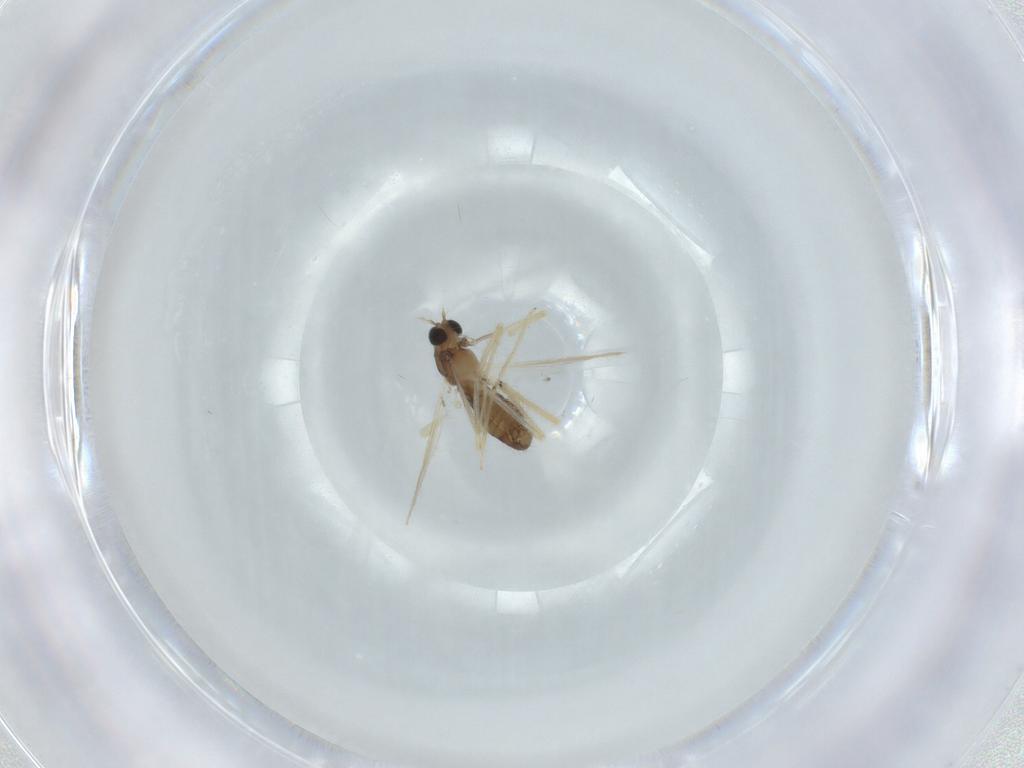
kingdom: Animalia
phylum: Arthropoda
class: Insecta
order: Diptera
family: Chironomidae
